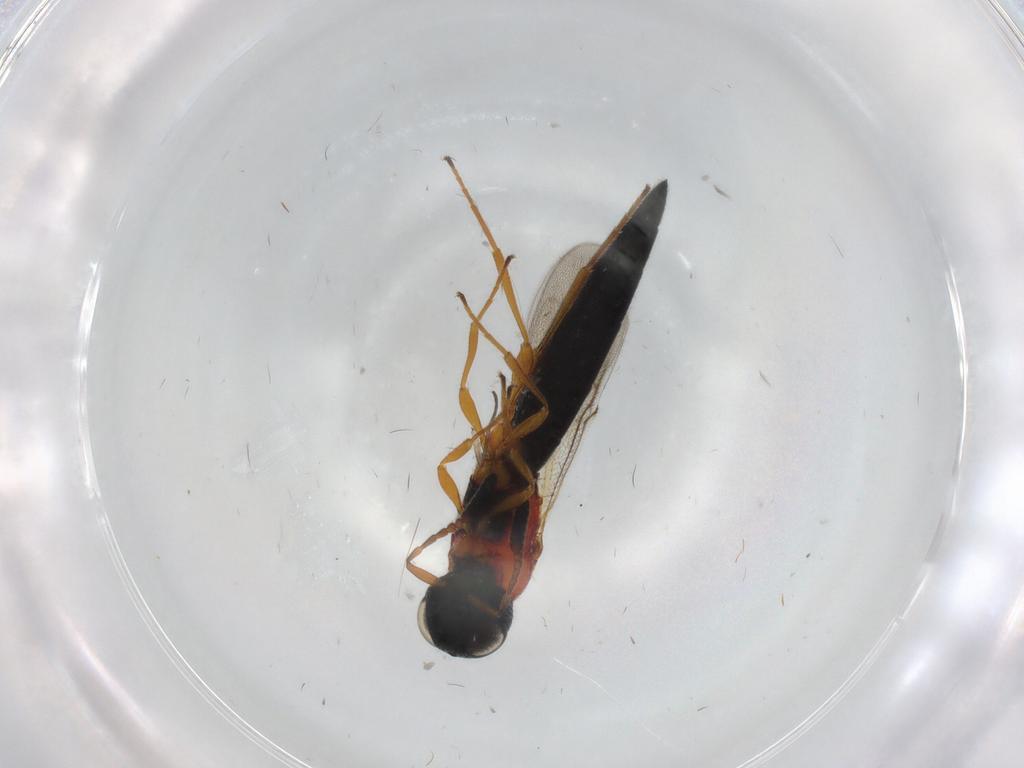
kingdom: Animalia
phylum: Arthropoda
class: Insecta
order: Hymenoptera
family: Scelionidae
